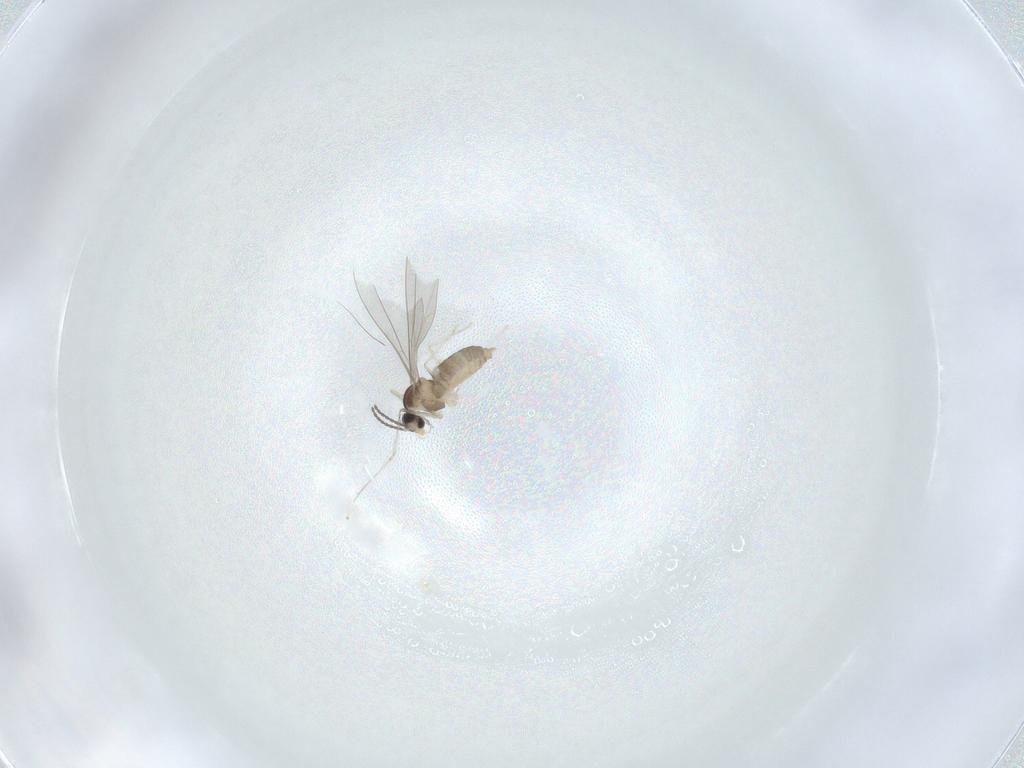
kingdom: Animalia
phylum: Arthropoda
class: Insecta
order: Diptera
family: Cecidomyiidae
